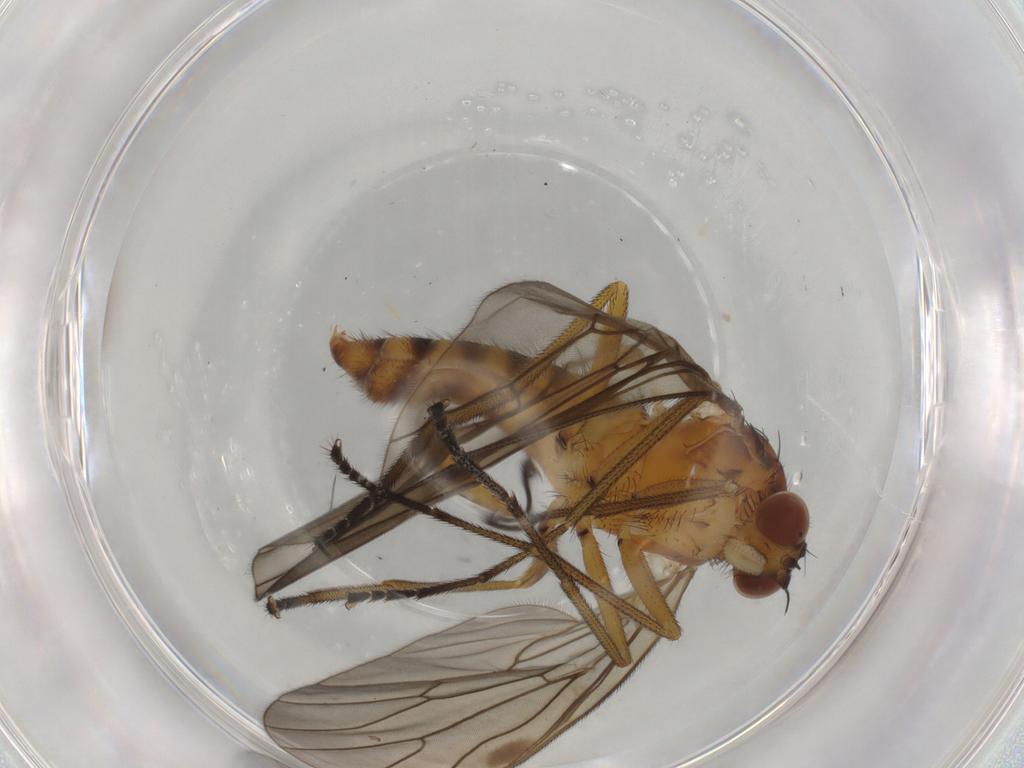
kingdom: Animalia
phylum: Arthropoda
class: Insecta
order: Diptera
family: Brachystomatidae
